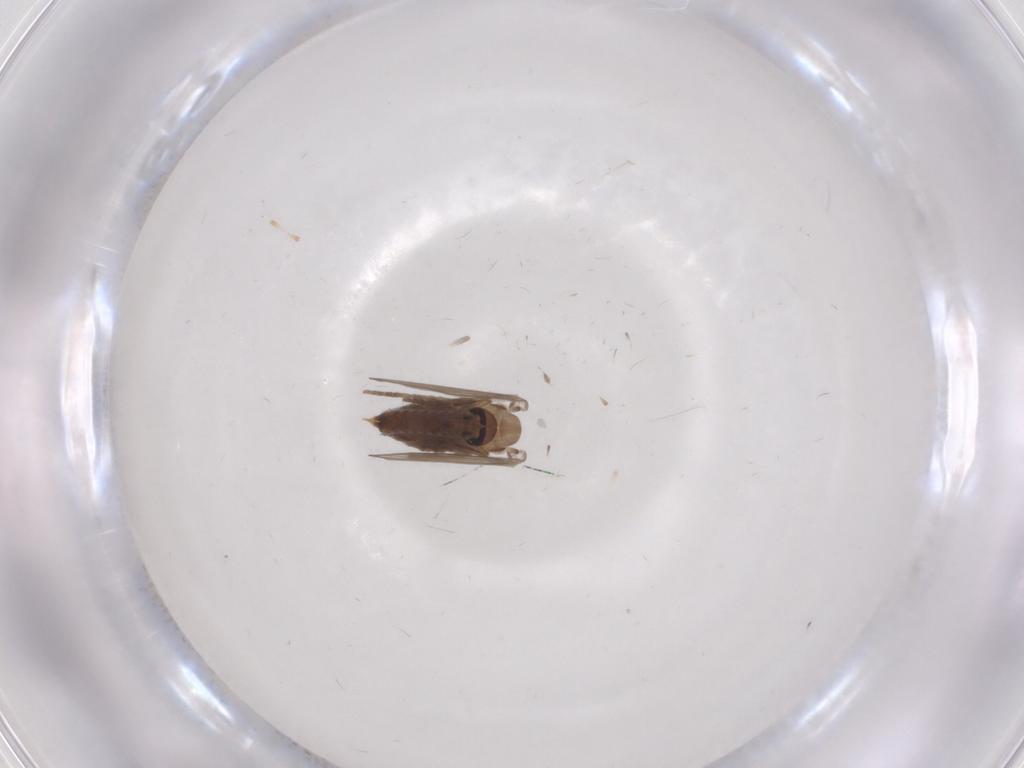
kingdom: Animalia
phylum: Arthropoda
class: Insecta
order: Diptera
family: Psychodidae
